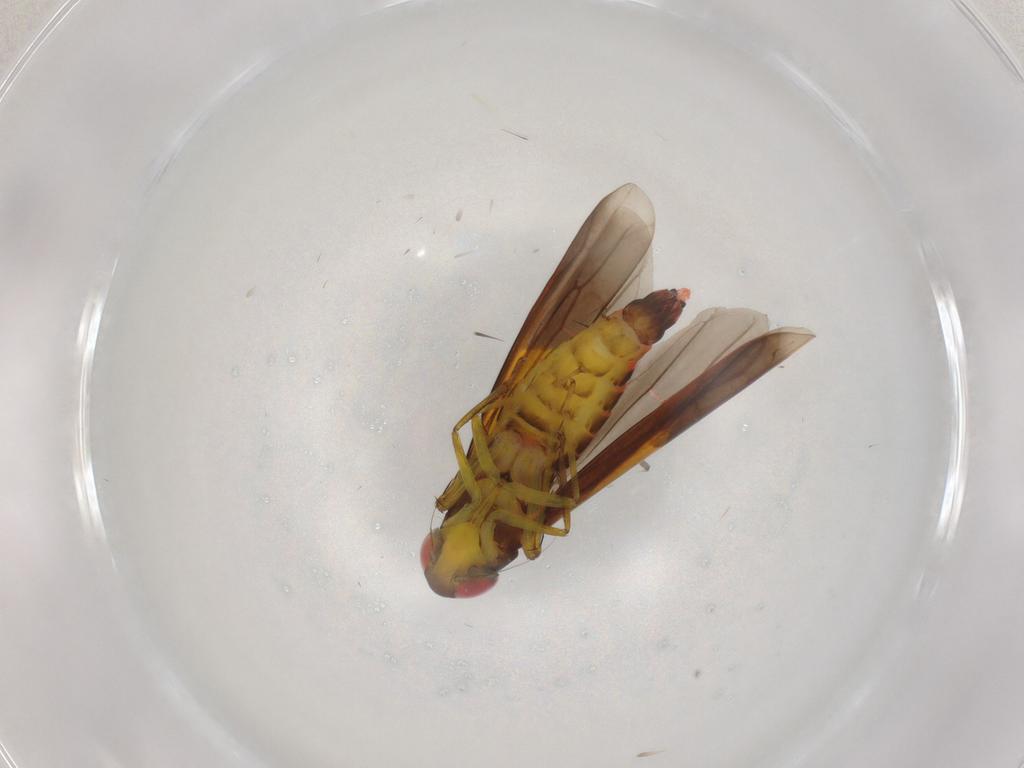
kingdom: Animalia
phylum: Arthropoda
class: Insecta
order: Hemiptera
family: Cicadellidae
